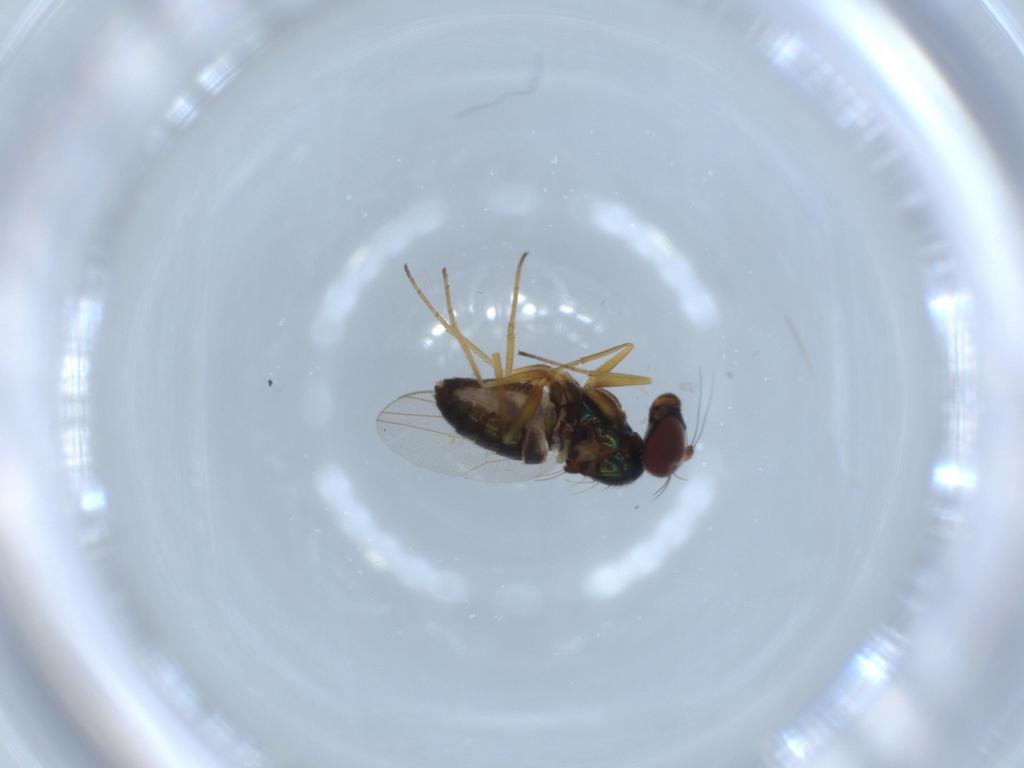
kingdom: Animalia
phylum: Arthropoda
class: Insecta
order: Diptera
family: Dolichopodidae
